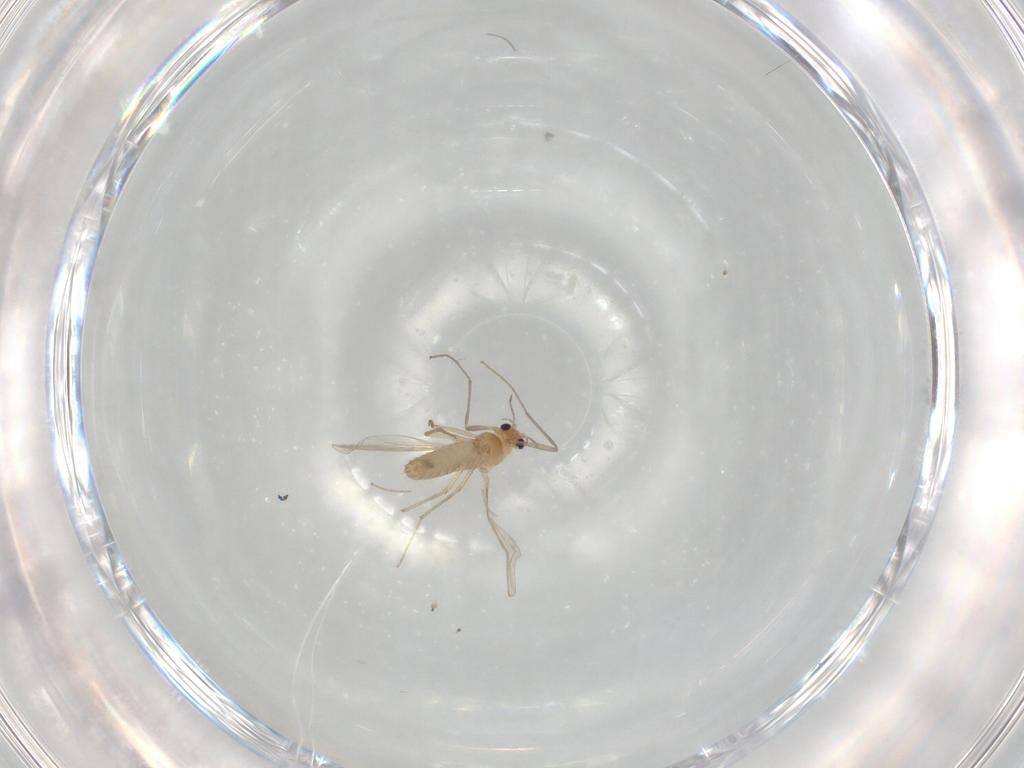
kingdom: Animalia
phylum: Arthropoda
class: Insecta
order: Diptera
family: Chironomidae
